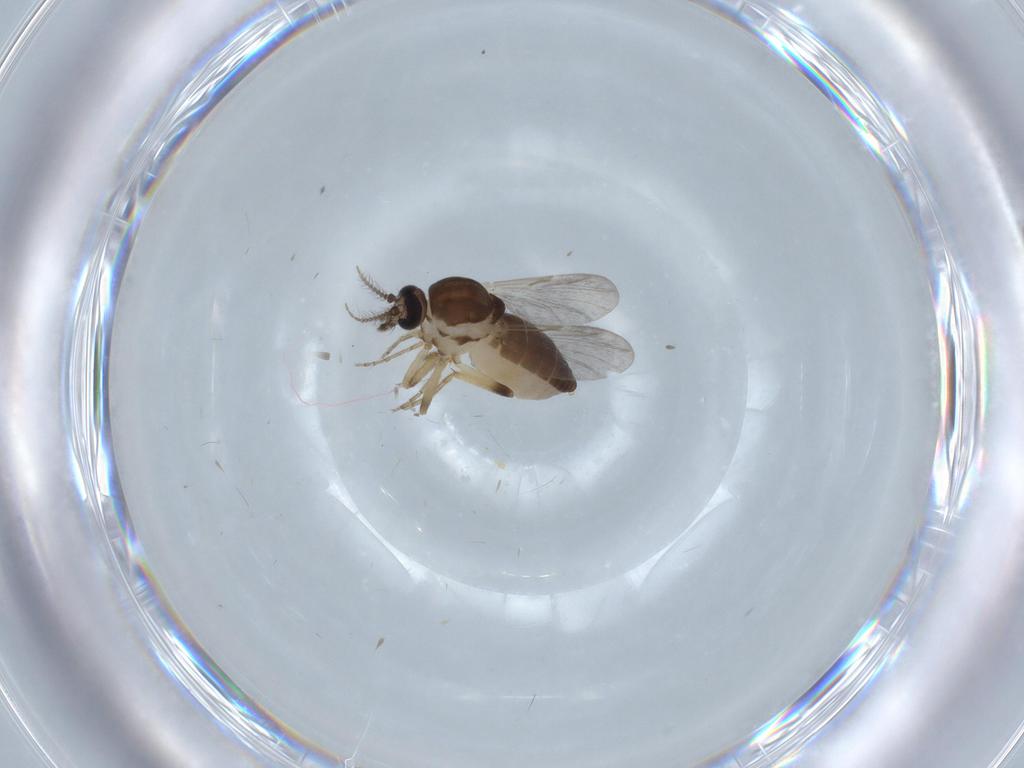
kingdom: Animalia
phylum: Arthropoda
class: Insecta
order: Diptera
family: Ceratopogonidae
